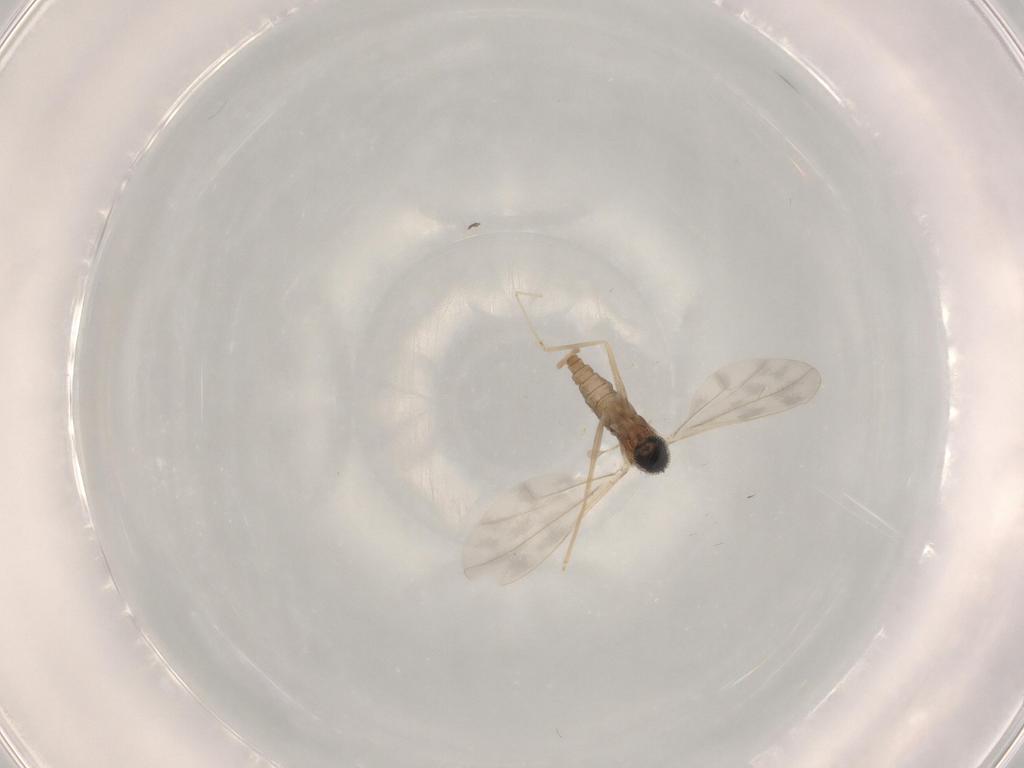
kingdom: Animalia
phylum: Arthropoda
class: Insecta
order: Diptera
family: Cecidomyiidae
